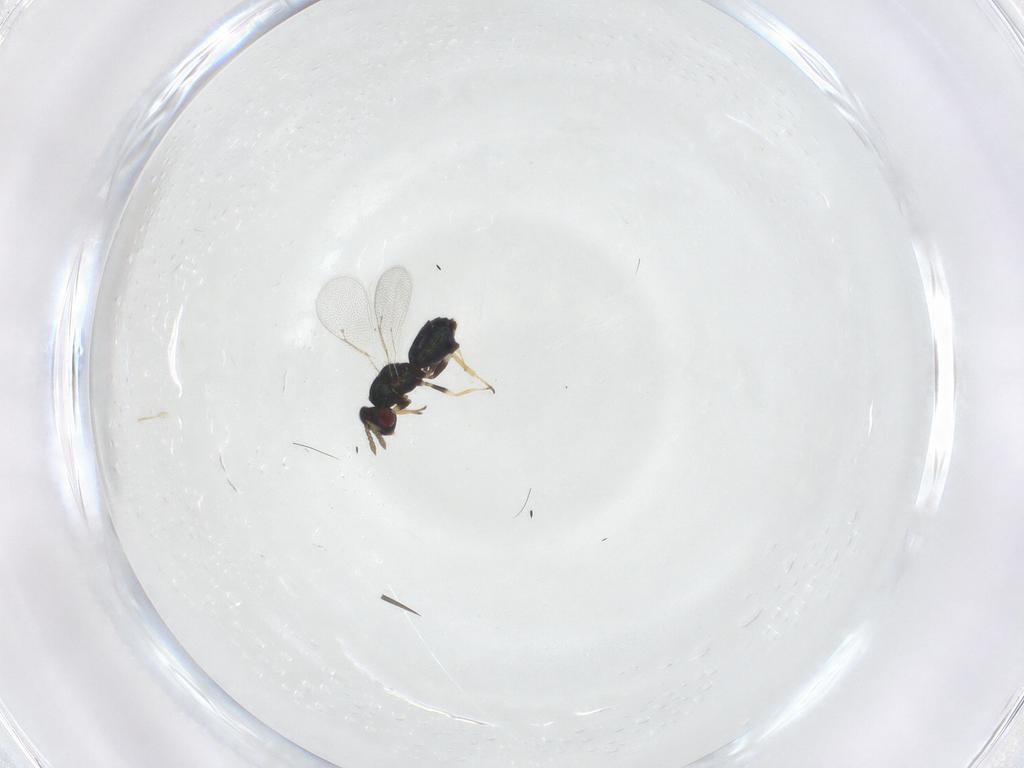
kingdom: Animalia
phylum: Arthropoda
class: Insecta
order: Hymenoptera
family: Eulophidae
